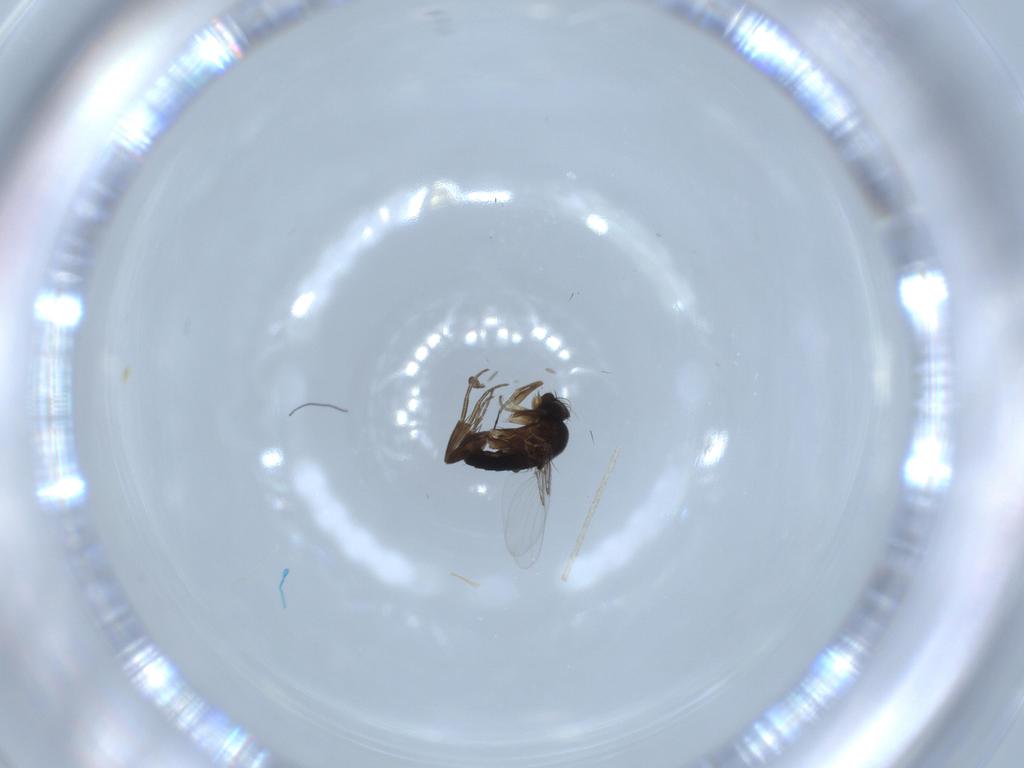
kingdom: Animalia
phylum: Arthropoda
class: Insecta
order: Diptera
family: Phoridae
